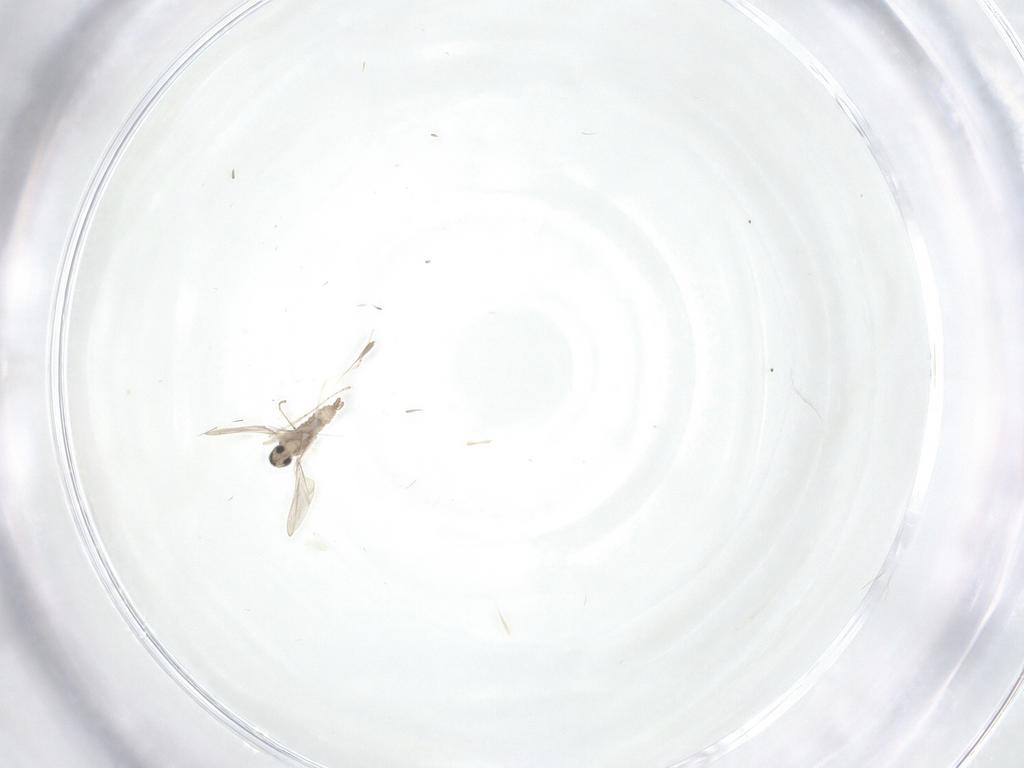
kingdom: Animalia
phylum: Arthropoda
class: Insecta
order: Diptera
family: Cecidomyiidae
